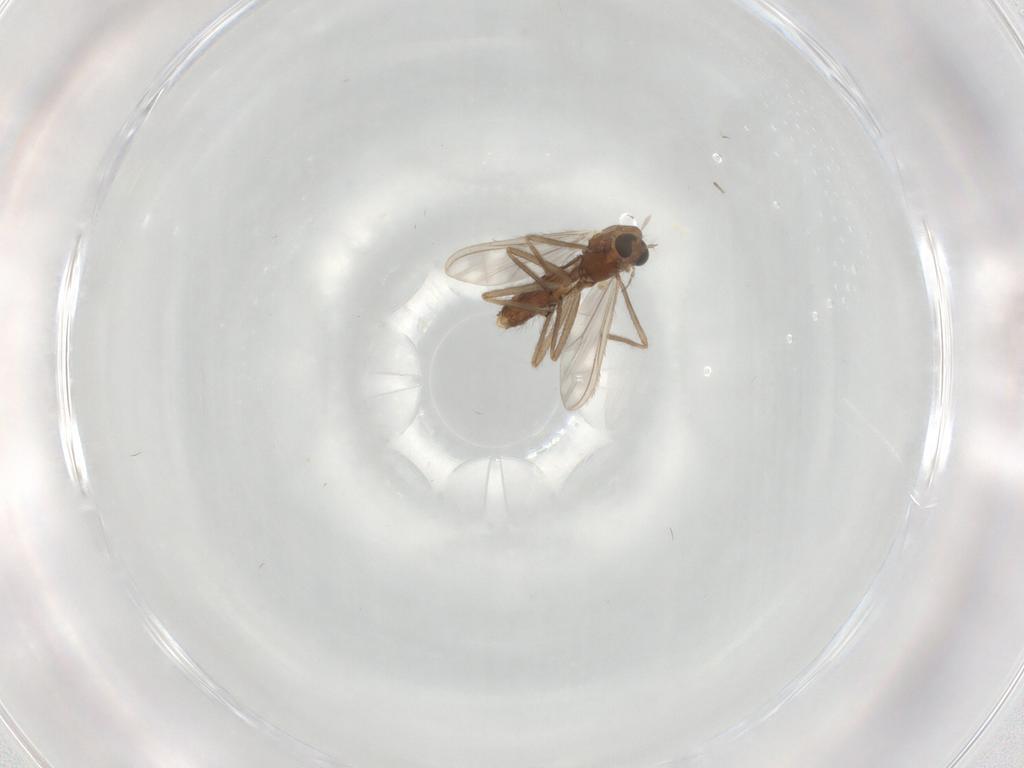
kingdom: Animalia
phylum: Arthropoda
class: Insecta
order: Diptera
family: Chironomidae
